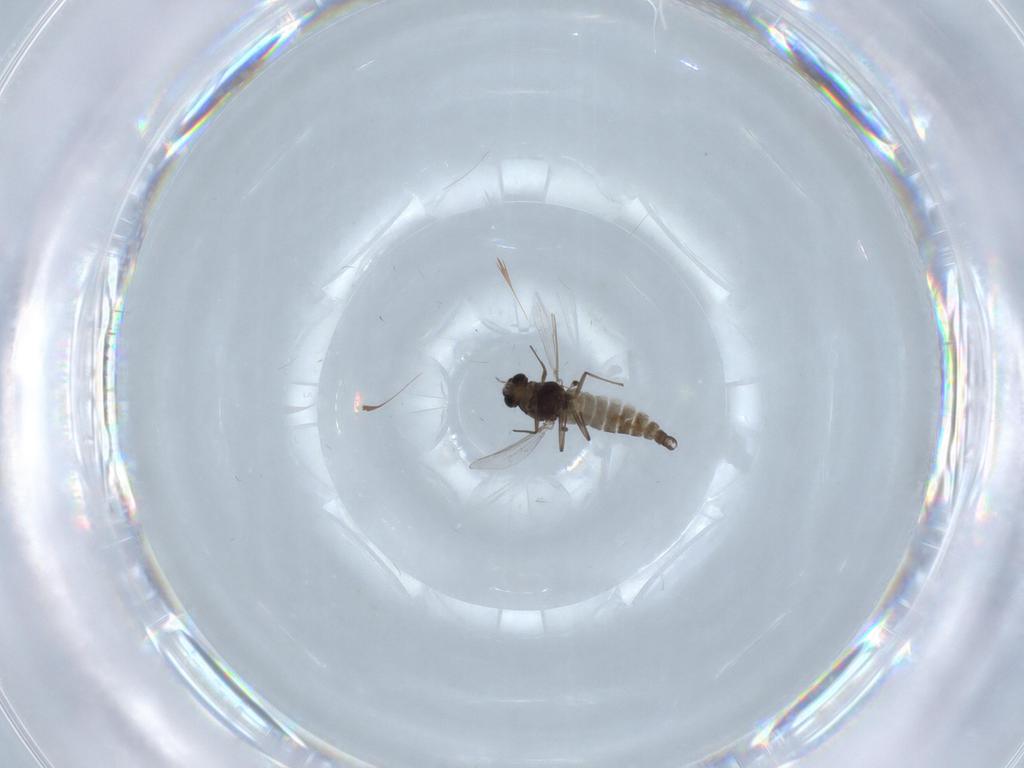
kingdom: Animalia
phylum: Arthropoda
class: Insecta
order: Diptera
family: Chironomidae
